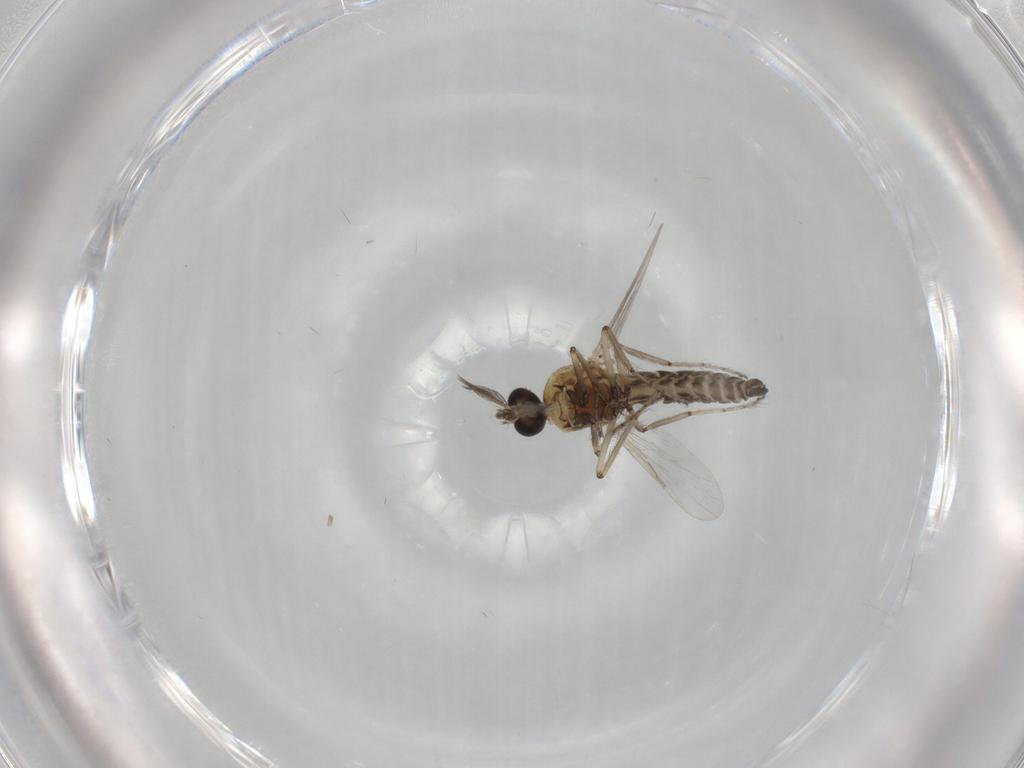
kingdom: Animalia
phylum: Arthropoda
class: Insecta
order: Diptera
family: Ceratopogonidae
